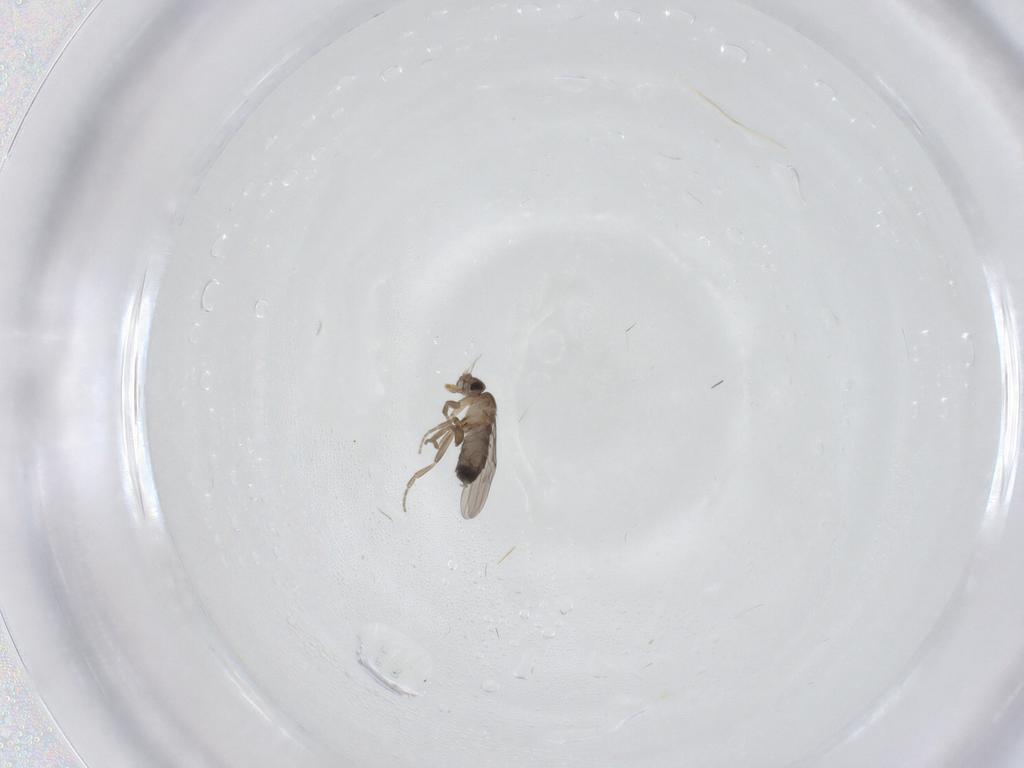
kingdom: Animalia
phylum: Arthropoda
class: Insecta
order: Diptera
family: Phoridae
